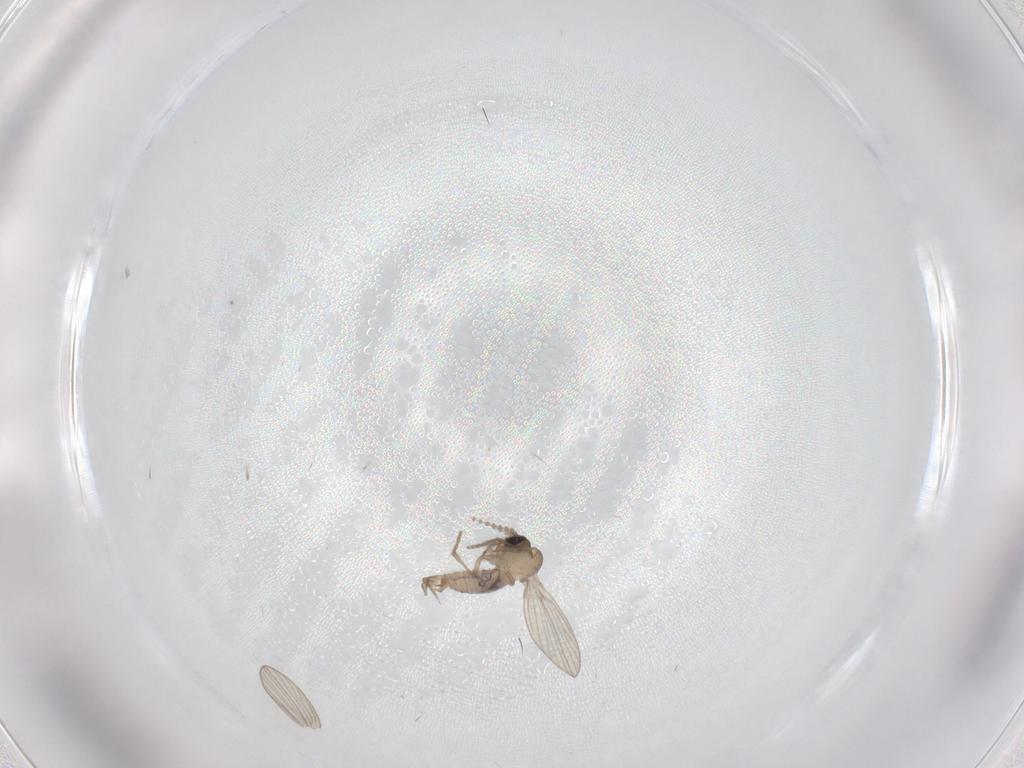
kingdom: Animalia
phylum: Arthropoda
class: Insecta
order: Diptera
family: Psychodidae
